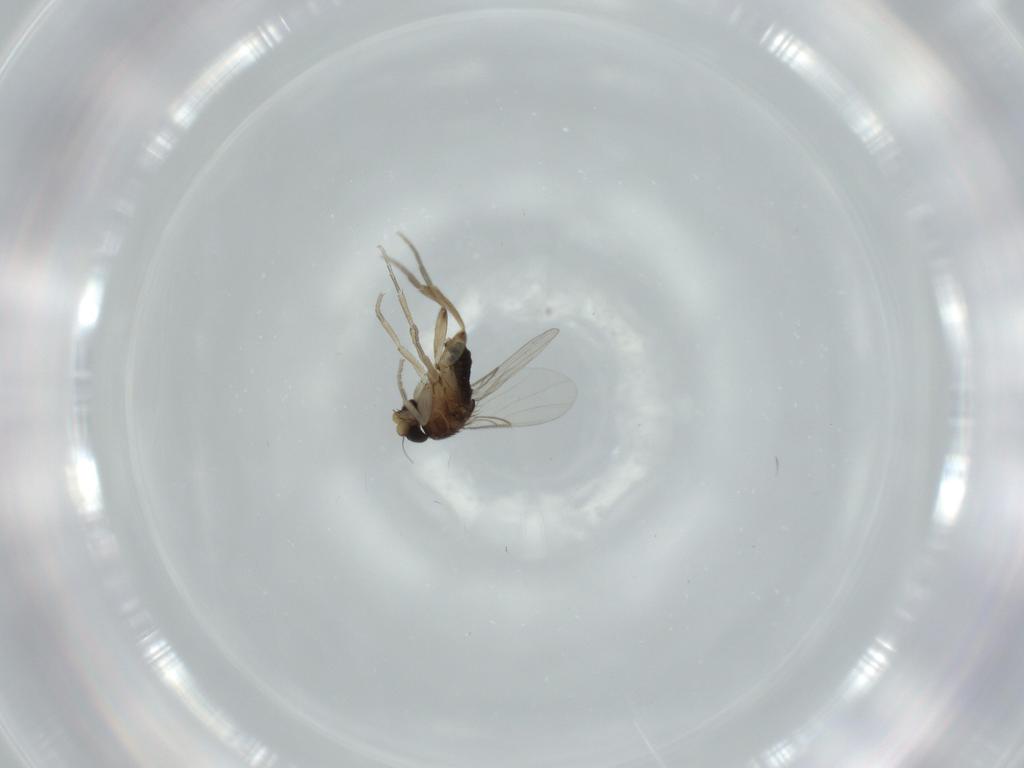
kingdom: Animalia
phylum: Arthropoda
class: Insecta
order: Diptera
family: Phoridae
